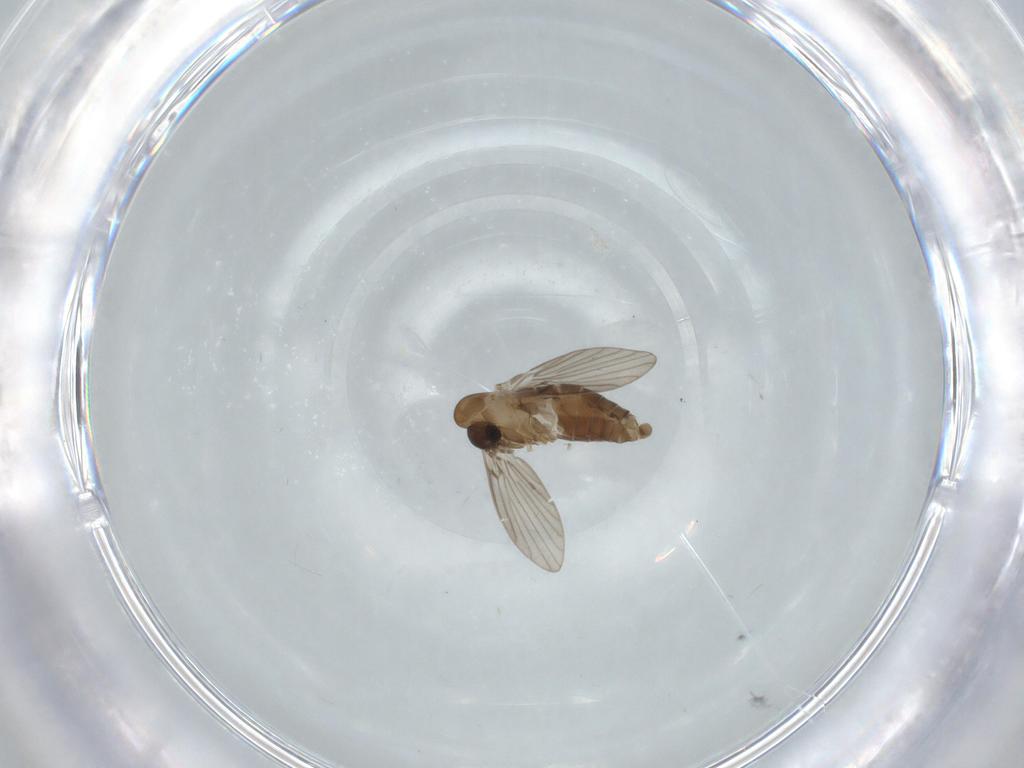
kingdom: Animalia
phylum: Arthropoda
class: Insecta
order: Diptera
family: Psychodidae
